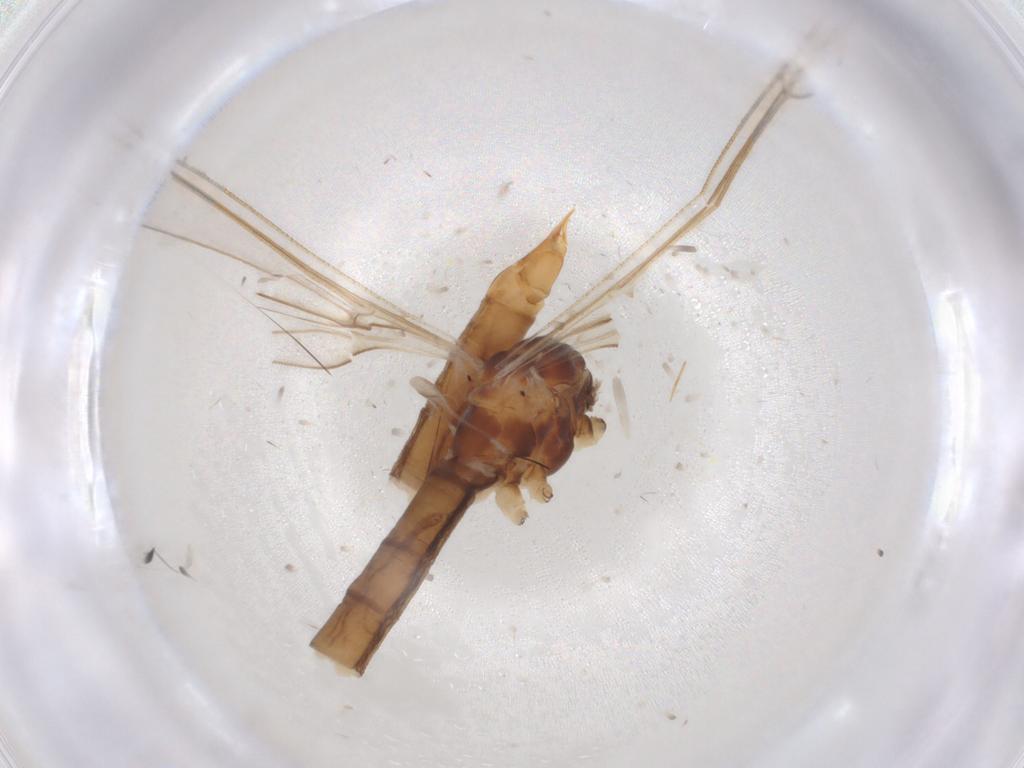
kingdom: Animalia
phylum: Arthropoda
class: Insecta
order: Diptera
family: Limoniidae
